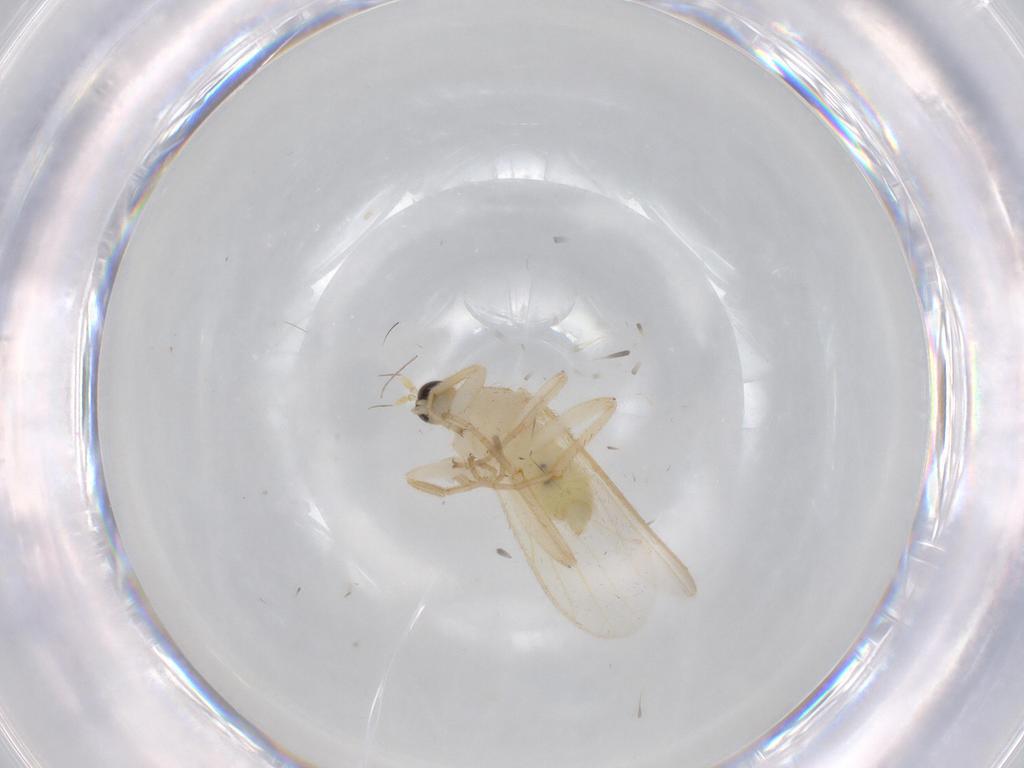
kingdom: Animalia
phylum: Arthropoda
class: Insecta
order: Diptera
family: Hybotidae
